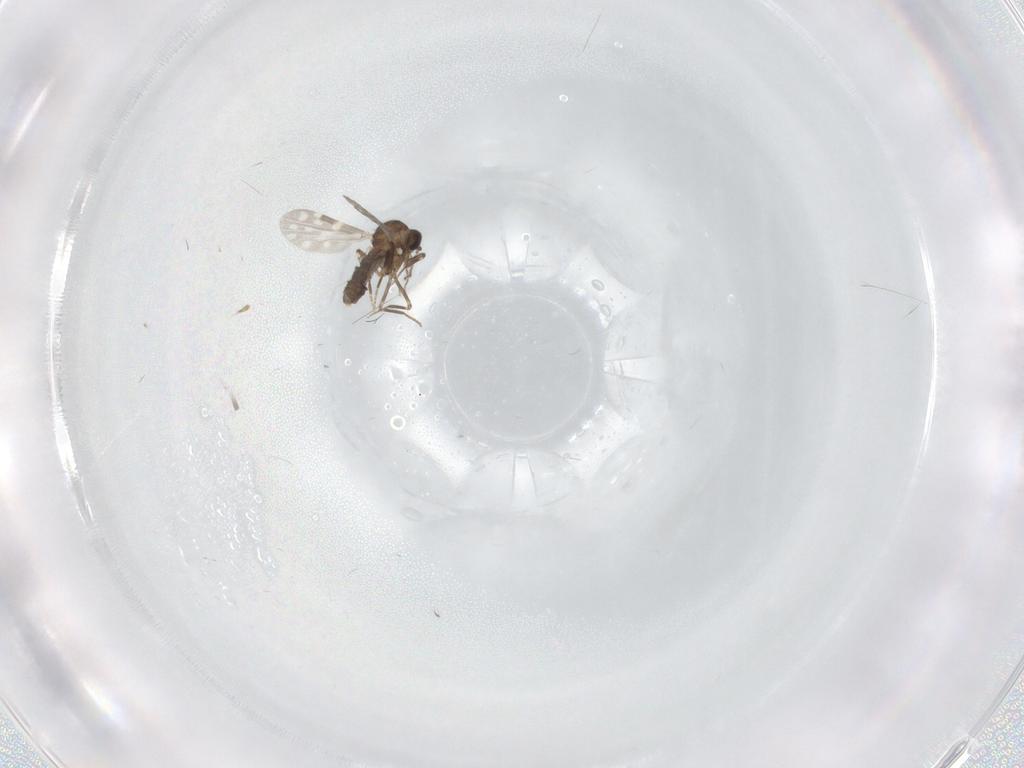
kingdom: Animalia
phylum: Arthropoda
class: Insecta
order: Diptera
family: Ceratopogonidae
